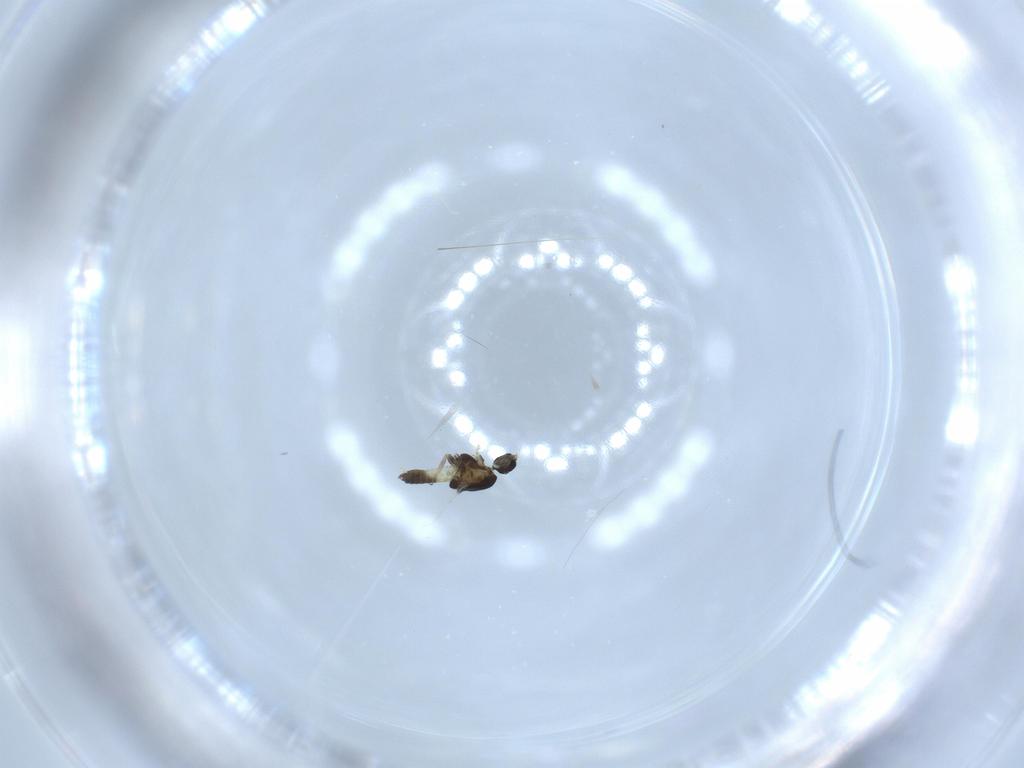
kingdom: Animalia
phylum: Arthropoda
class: Insecta
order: Diptera
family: Chironomidae
